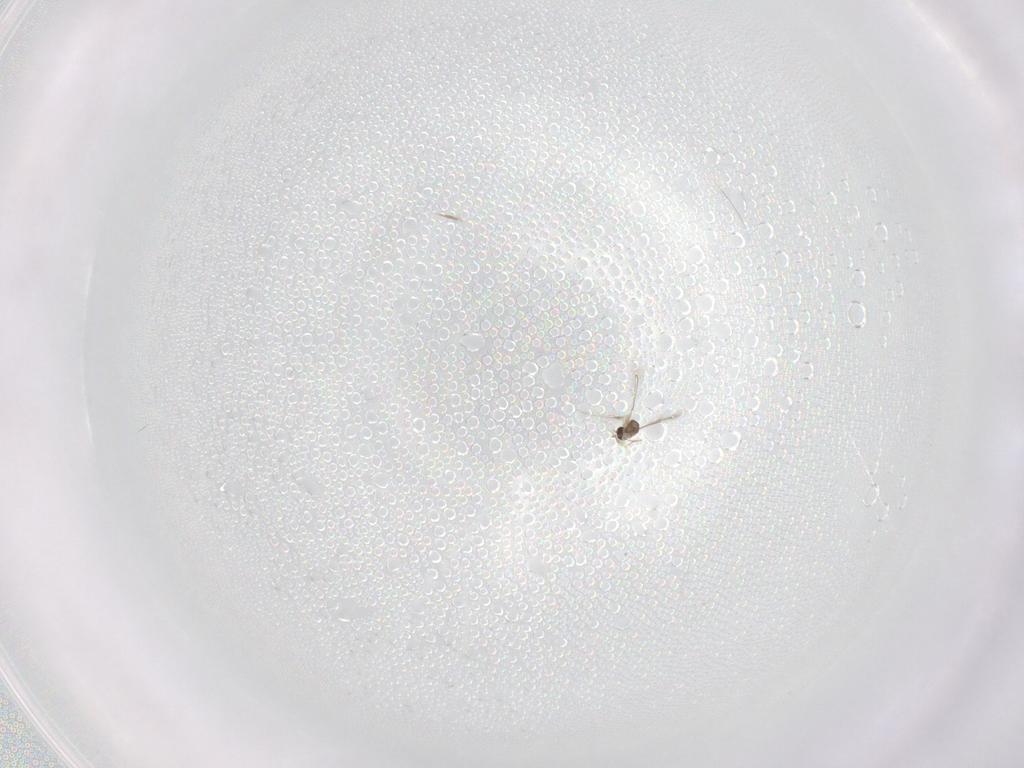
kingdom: Animalia
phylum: Arthropoda
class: Insecta
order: Hymenoptera
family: Mymaridae
